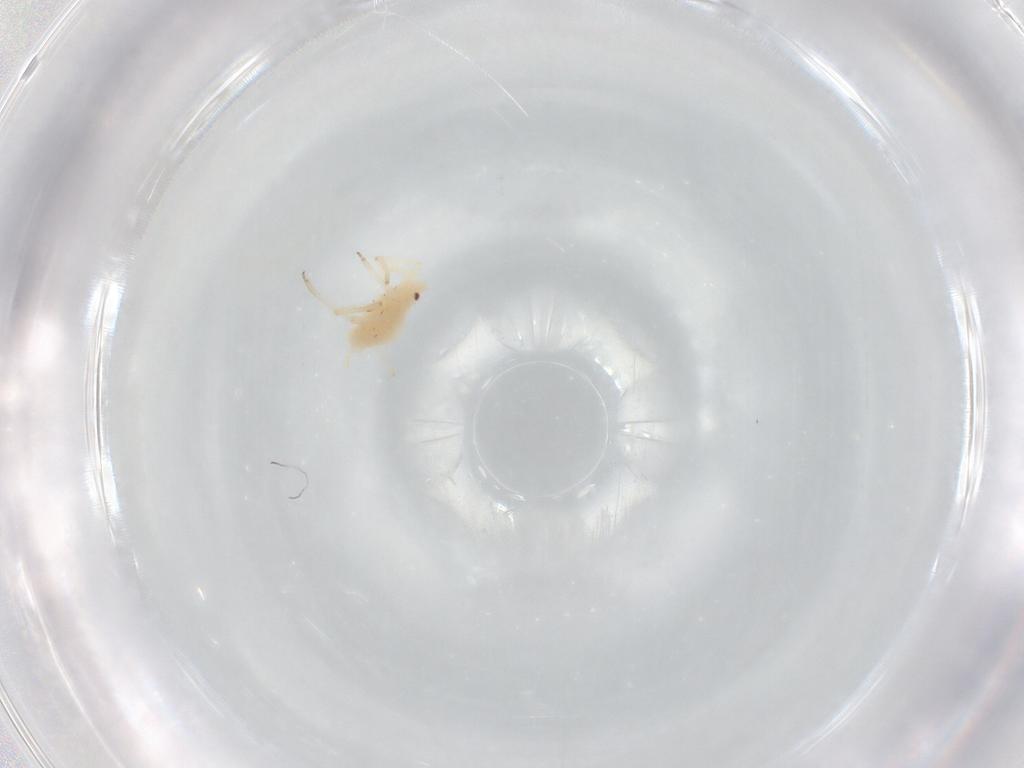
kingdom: Animalia
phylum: Arthropoda
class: Insecta
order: Hemiptera
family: Aphididae
